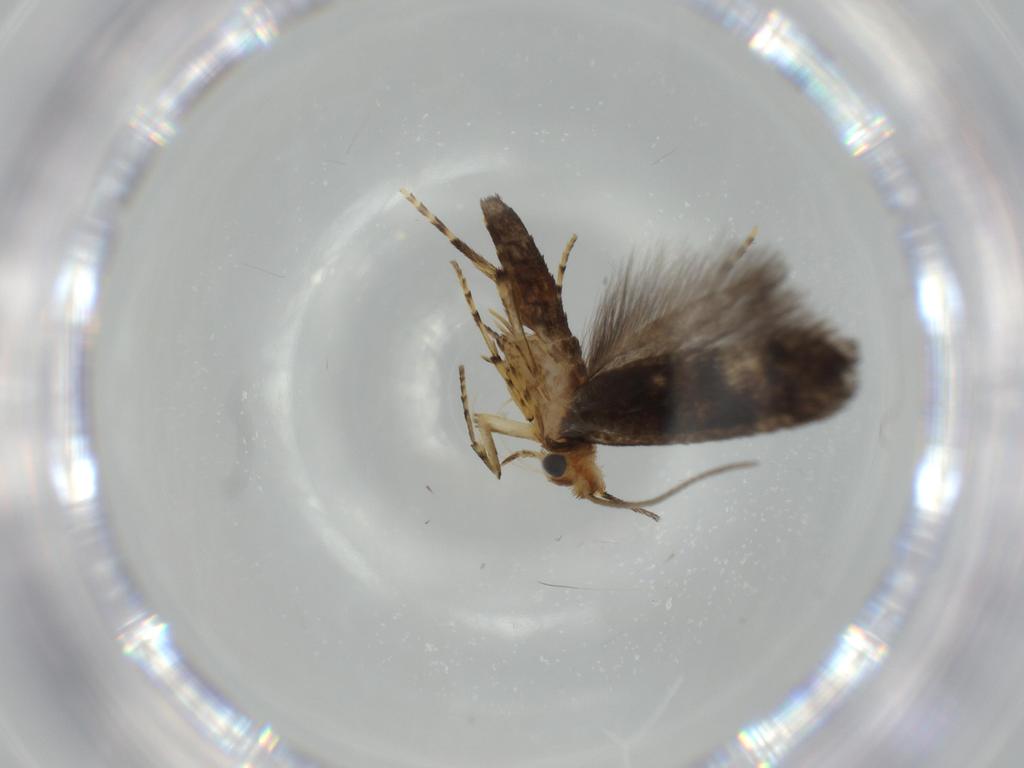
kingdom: Animalia
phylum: Arthropoda
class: Insecta
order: Lepidoptera
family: Argyresthiidae
